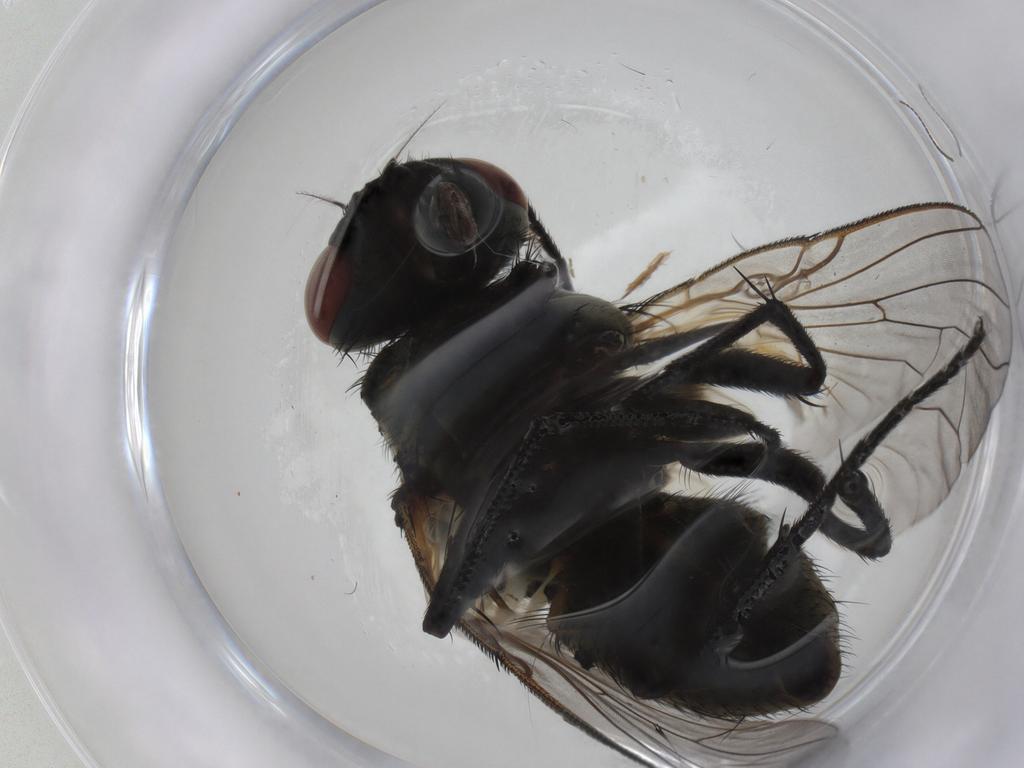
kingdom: Animalia
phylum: Arthropoda
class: Insecta
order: Diptera
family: Muscidae
